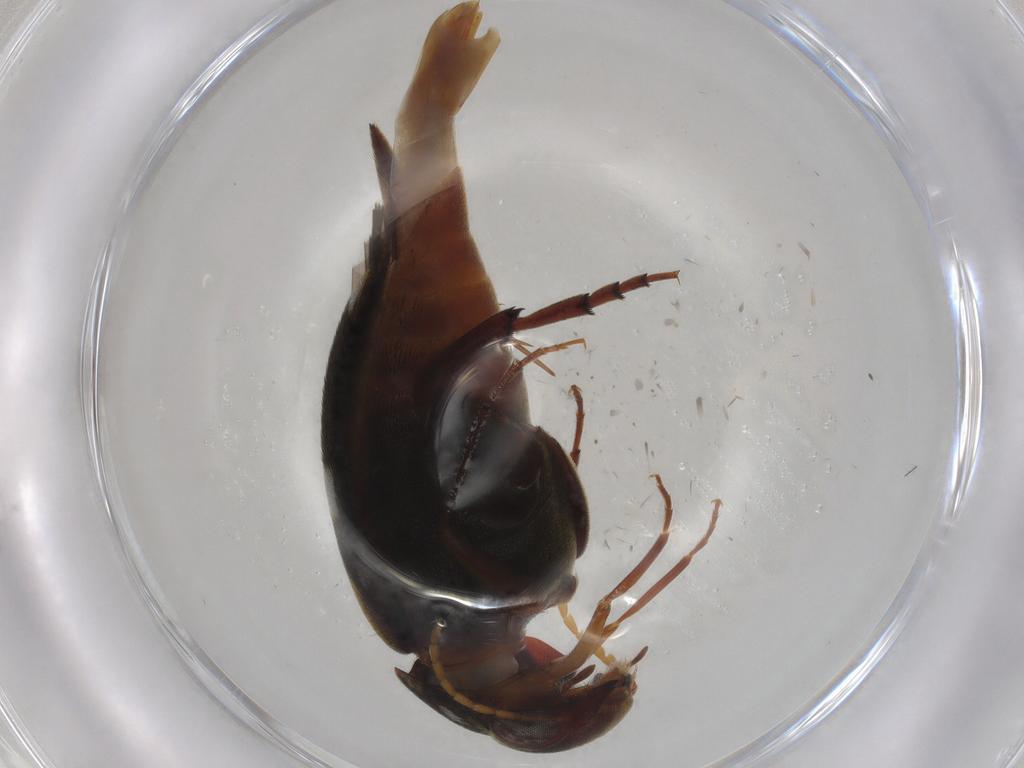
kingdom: Animalia
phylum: Arthropoda
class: Insecta
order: Coleoptera
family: Mordellidae
